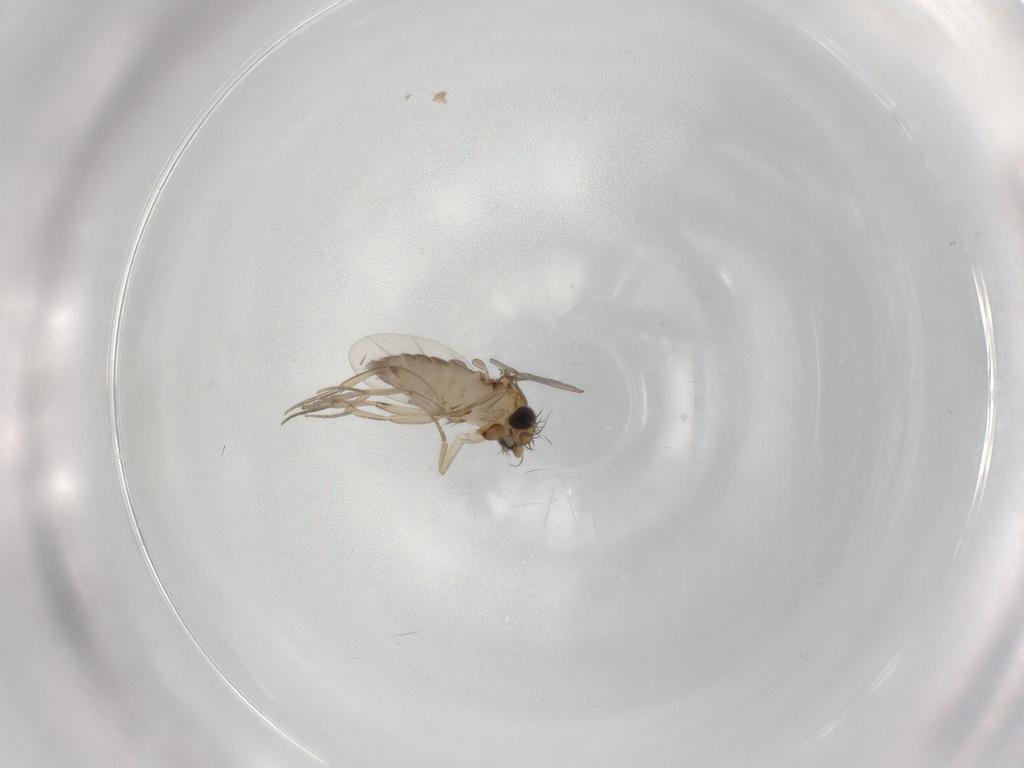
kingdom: Animalia
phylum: Arthropoda
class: Insecta
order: Diptera
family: Phoridae
